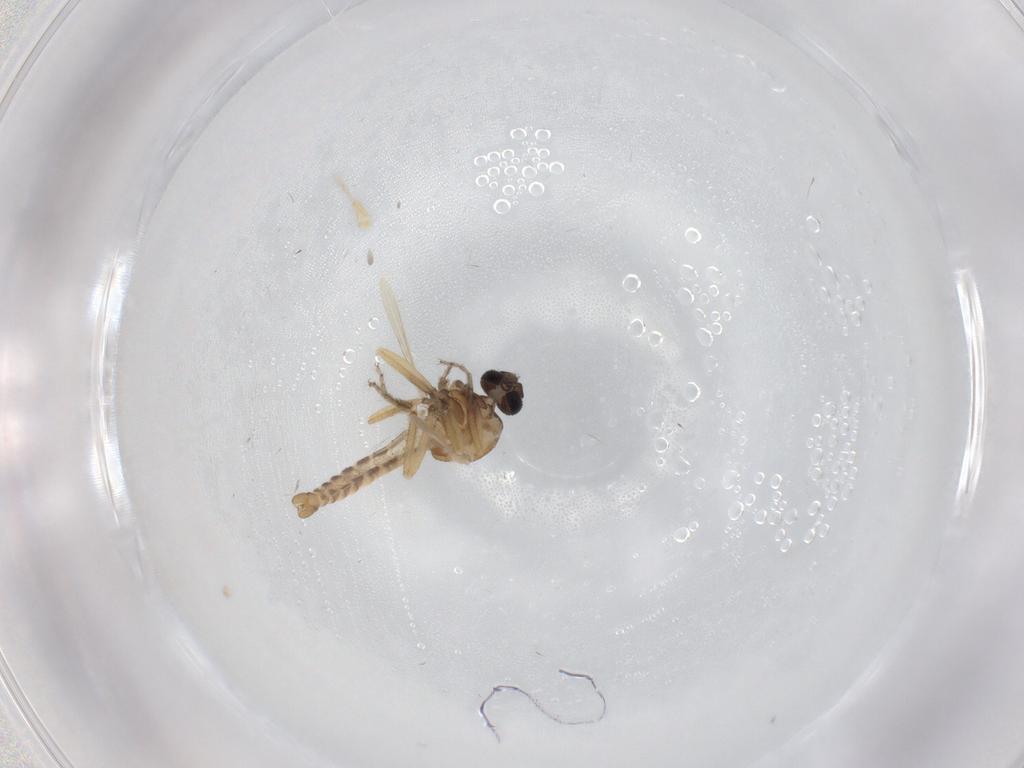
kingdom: Animalia
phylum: Arthropoda
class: Insecta
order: Diptera
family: Ceratopogonidae
